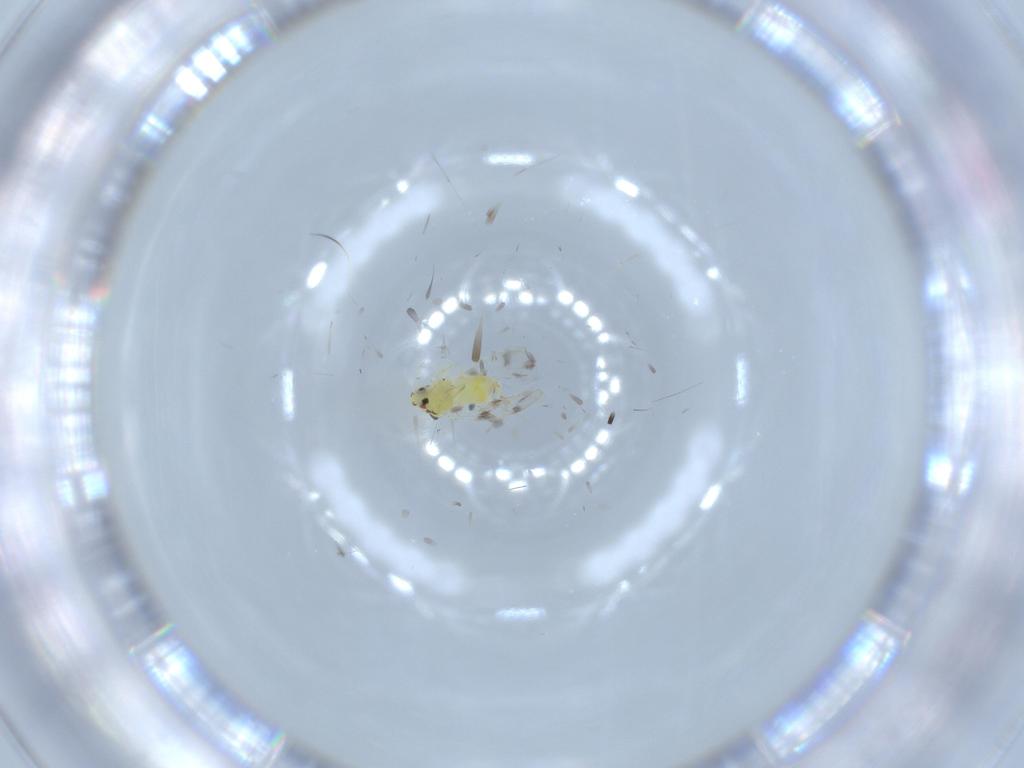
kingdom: Animalia
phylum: Arthropoda
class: Insecta
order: Hemiptera
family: Aleyrodidae
